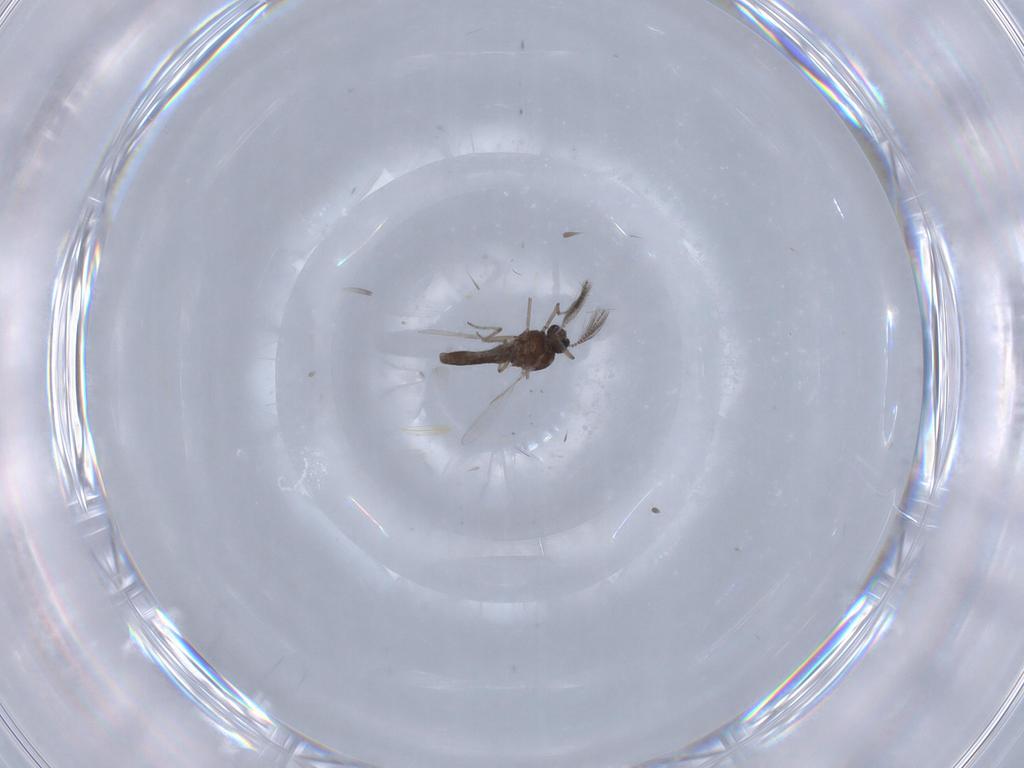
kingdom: Animalia
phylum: Arthropoda
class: Insecta
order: Diptera
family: Ceratopogonidae
